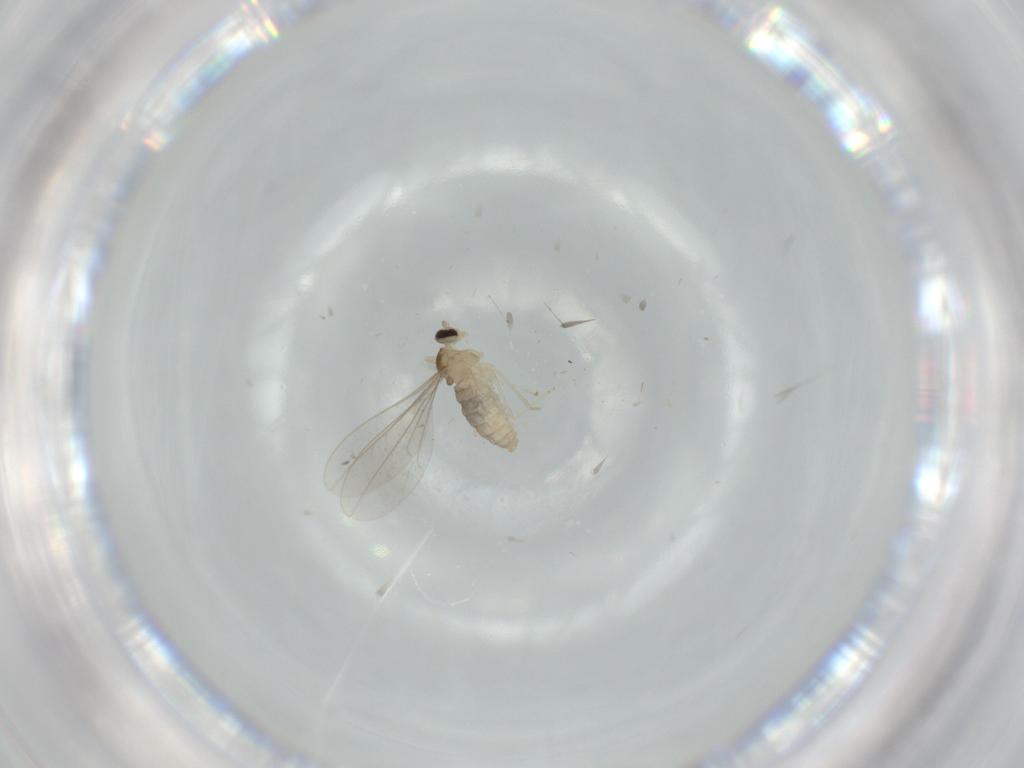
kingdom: Animalia
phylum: Arthropoda
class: Insecta
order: Diptera
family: Cecidomyiidae
